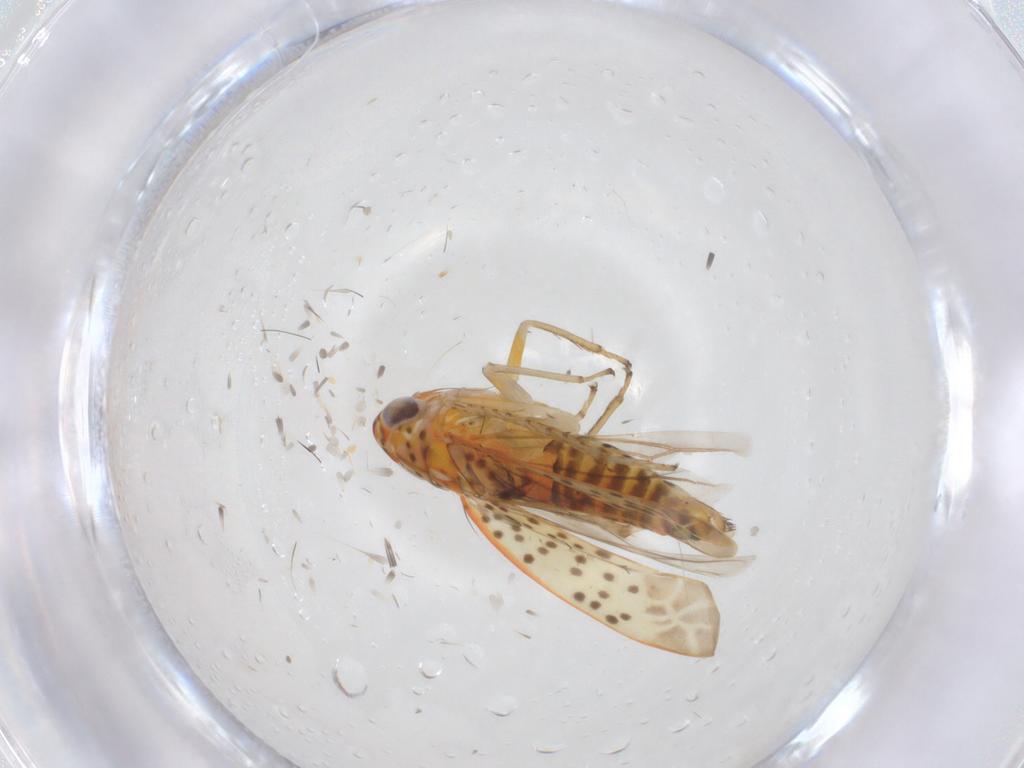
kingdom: Animalia
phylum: Arthropoda
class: Insecta
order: Hemiptera
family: Cicadellidae
